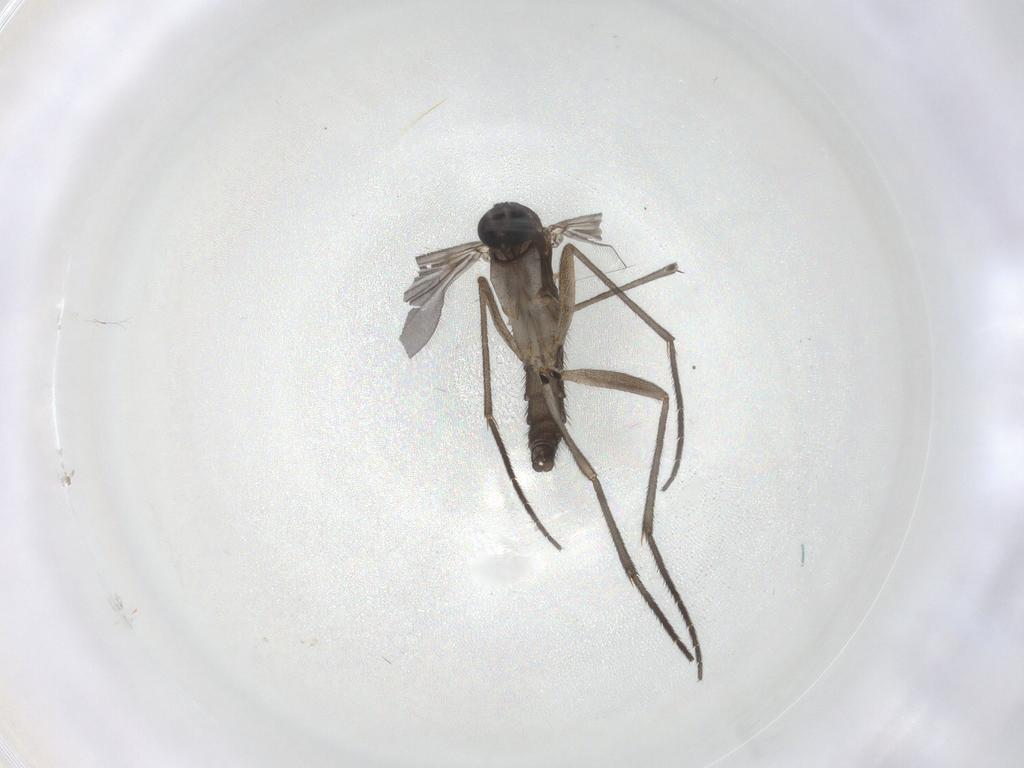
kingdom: Animalia
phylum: Arthropoda
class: Insecta
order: Diptera
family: Sciaridae
